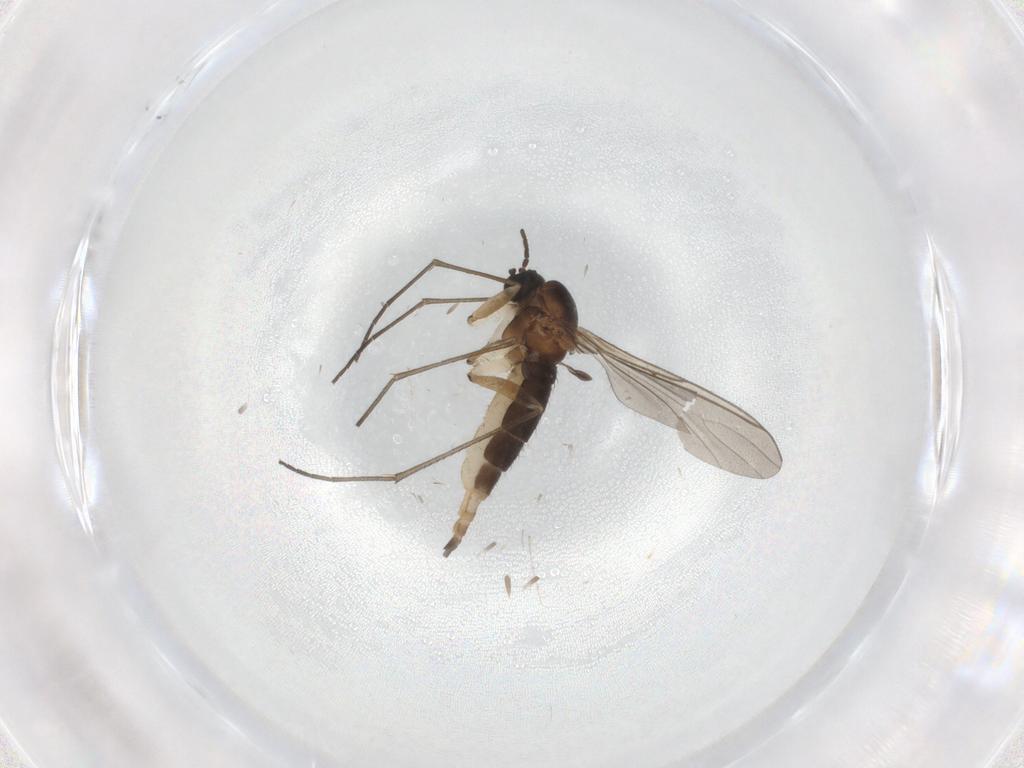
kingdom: Animalia
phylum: Arthropoda
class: Insecta
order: Diptera
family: Sciaridae
